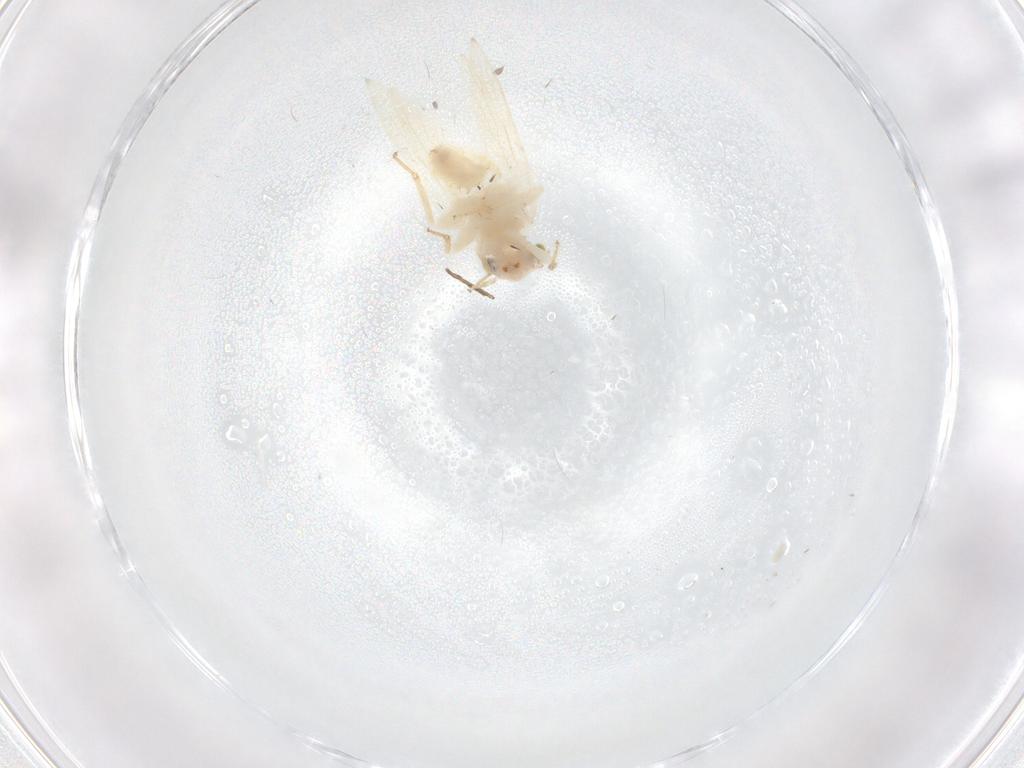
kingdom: Animalia
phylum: Arthropoda
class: Insecta
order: Psocodea
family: Lepidopsocidae
